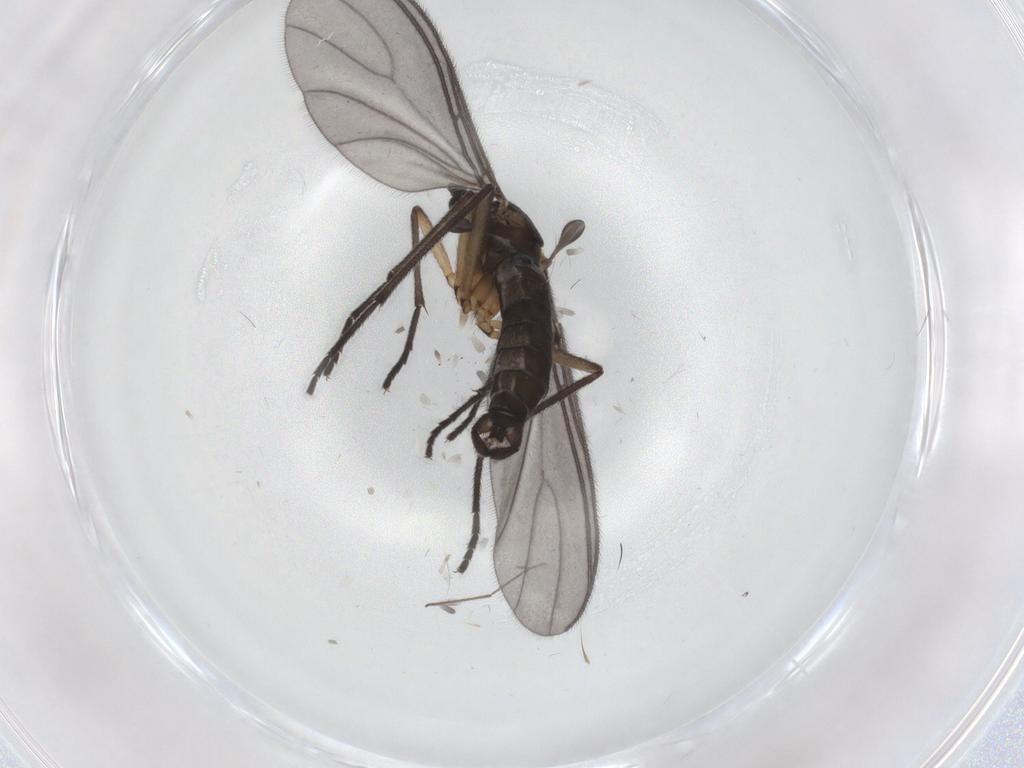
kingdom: Animalia
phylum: Arthropoda
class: Insecta
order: Diptera
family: Sciaridae
